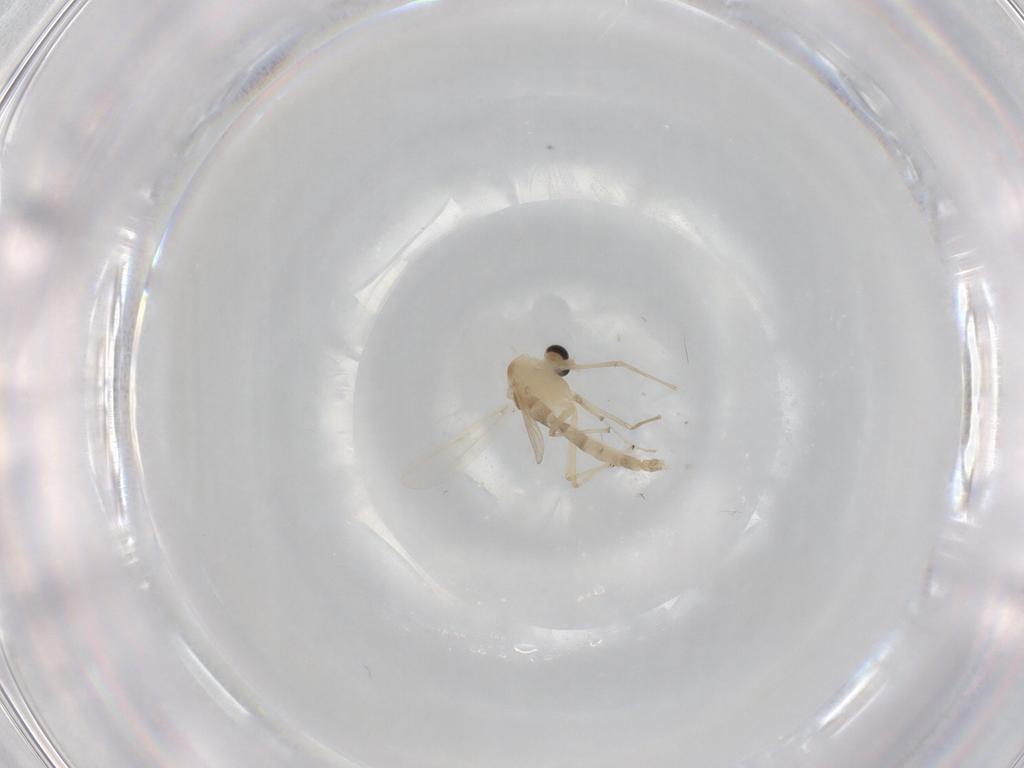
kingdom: Animalia
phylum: Arthropoda
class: Insecta
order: Diptera
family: Chironomidae
